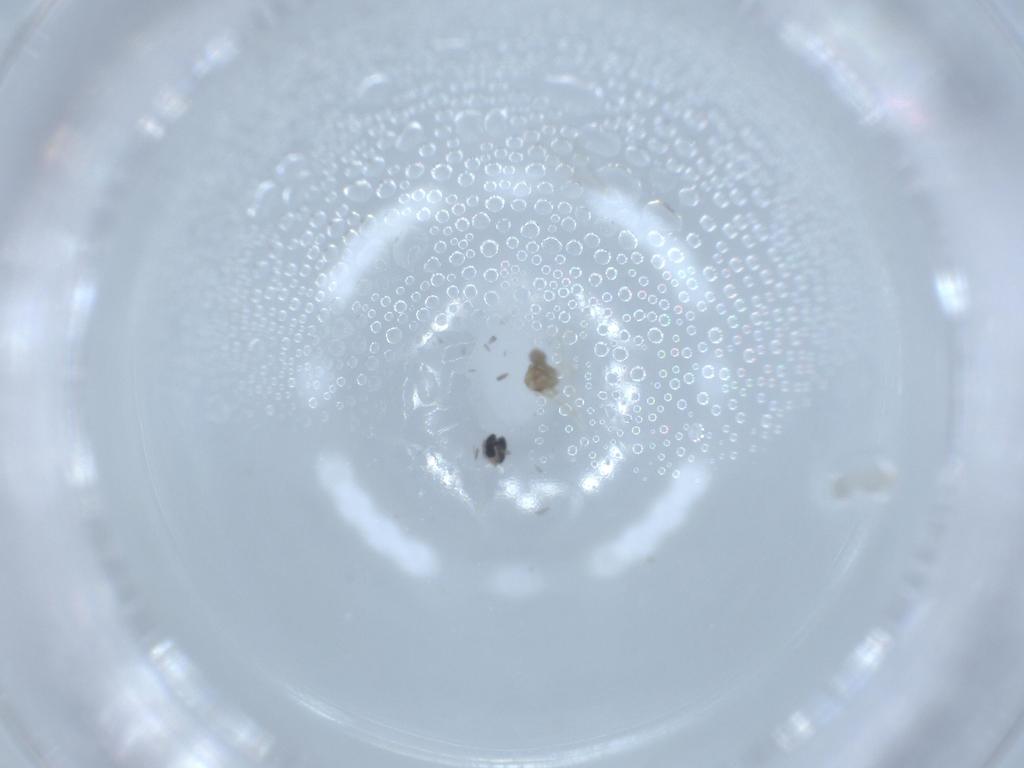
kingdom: Animalia
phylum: Arthropoda
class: Insecta
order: Diptera
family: Cecidomyiidae
